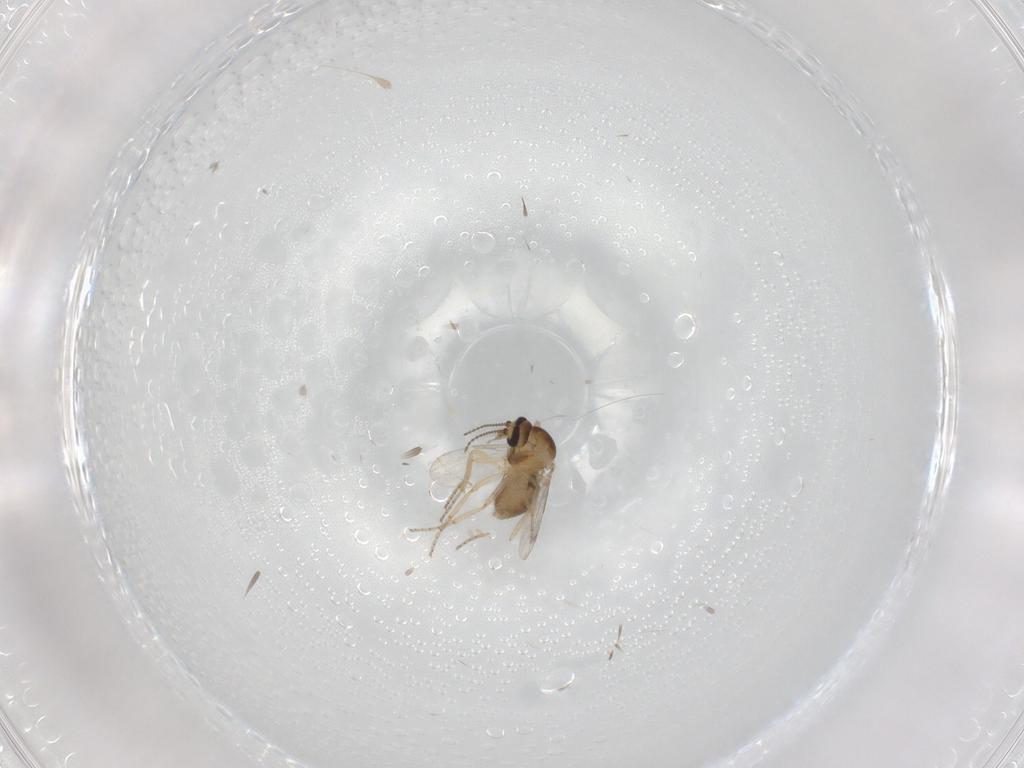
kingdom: Animalia
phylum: Arthropoda
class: Insecta
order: Diptera
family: Ceratopogonidae
